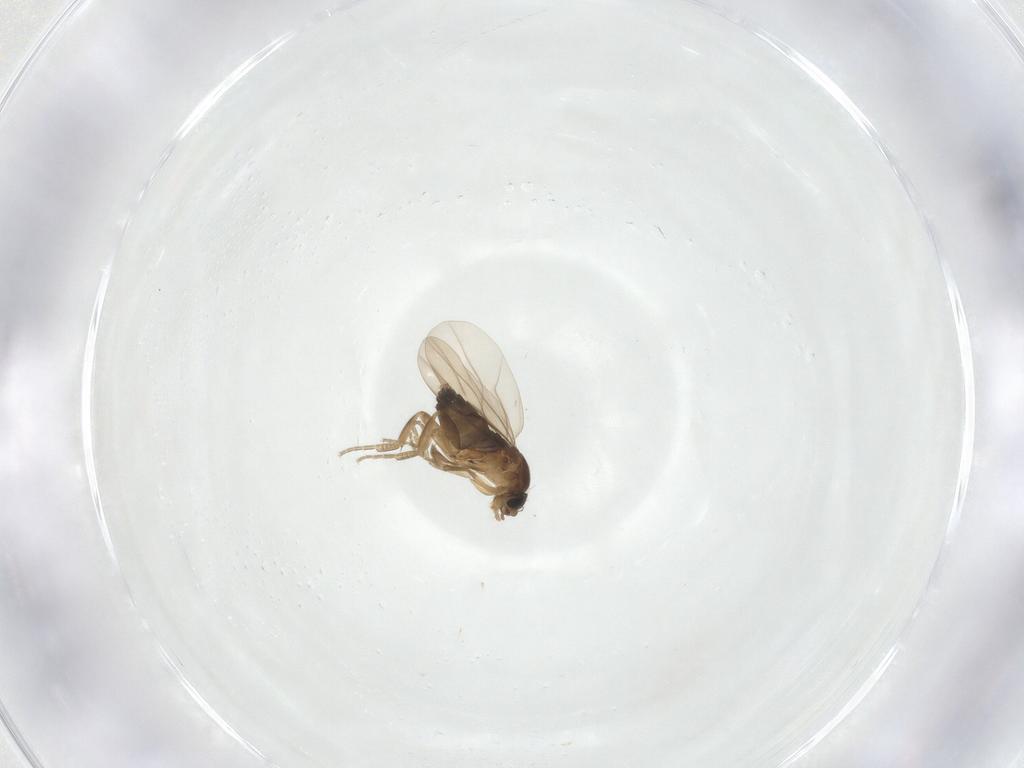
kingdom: Animalia
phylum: Arthropoda
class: Insecta
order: Diptera
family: Phoridae
